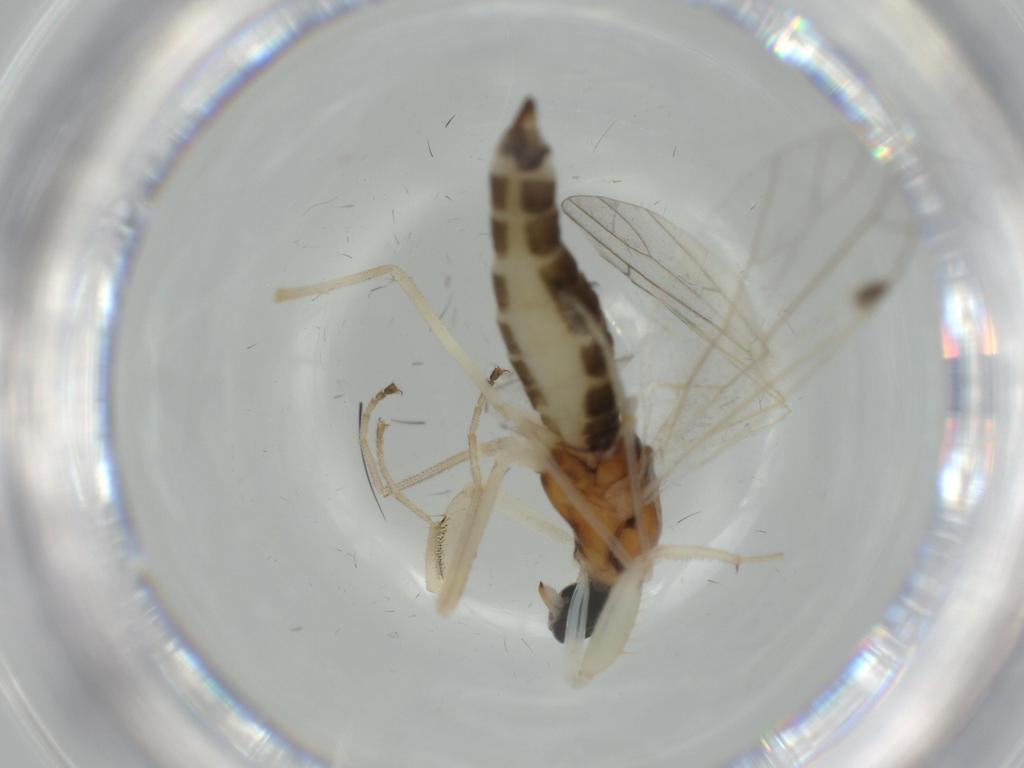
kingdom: Animalia
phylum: Arthropoda
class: Insecta
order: Diptera
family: Empididae
